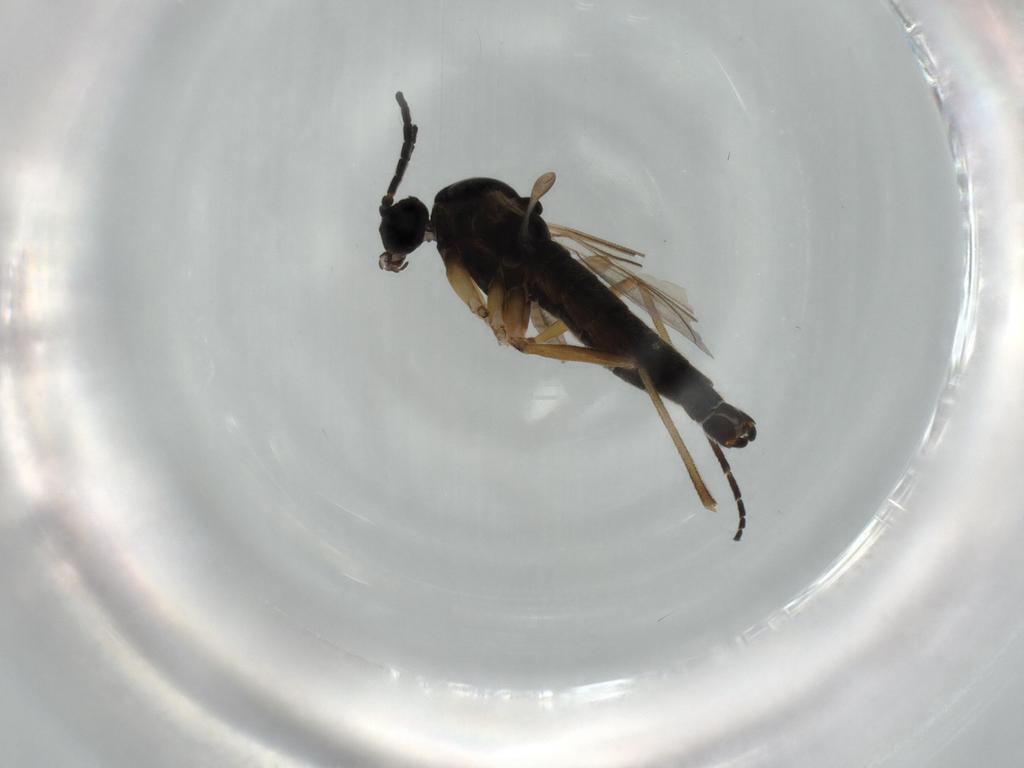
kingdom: Animalia
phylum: Arthropoda
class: Insecta
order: Diptera
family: Sciaridae
